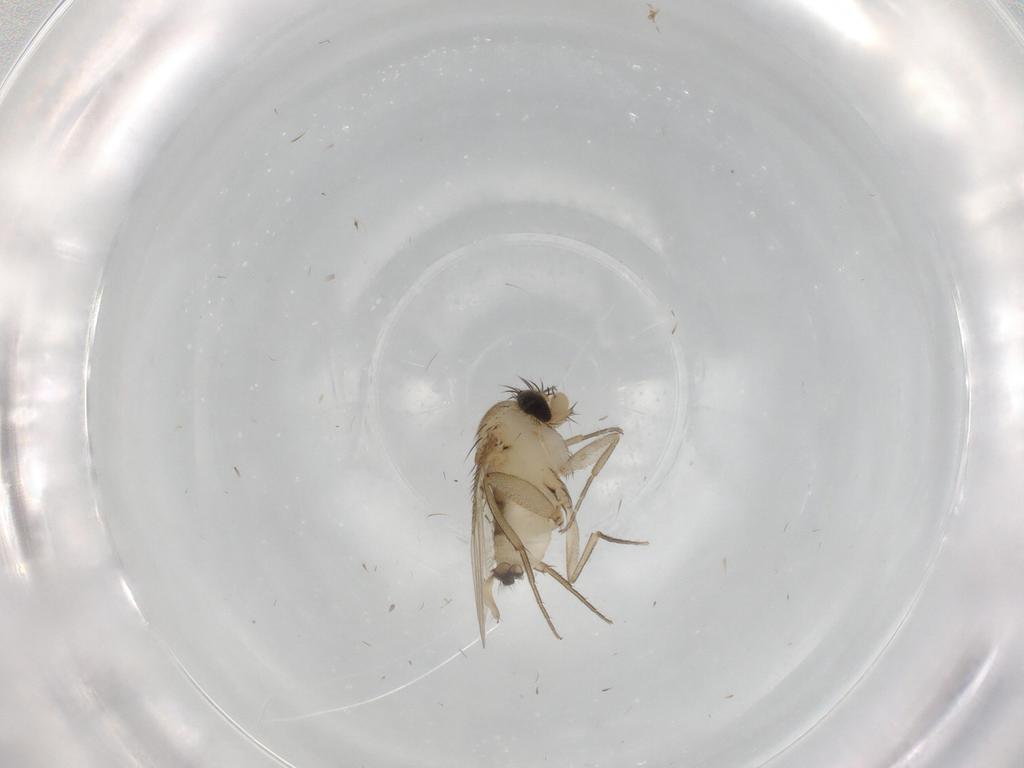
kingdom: Animalia
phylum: Arthropoda
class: Insecta
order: Diptera
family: Phoridae
